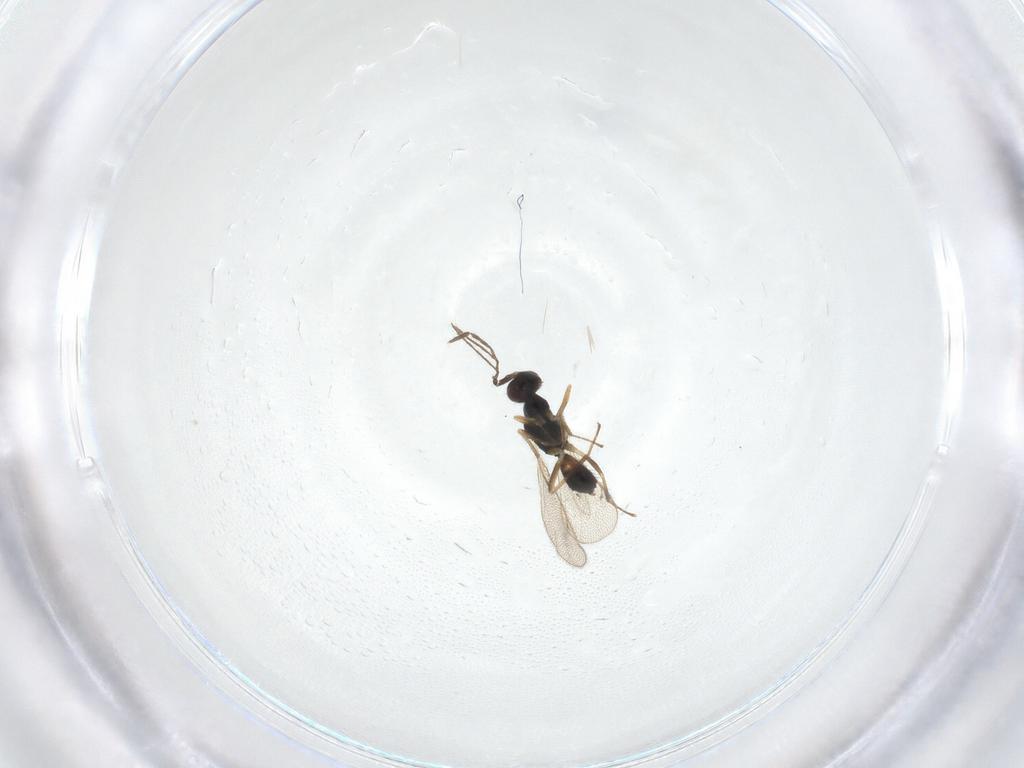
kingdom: Animalia
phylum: Arthropoda
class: Insecta
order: Hymenoptera
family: Eulophidae
